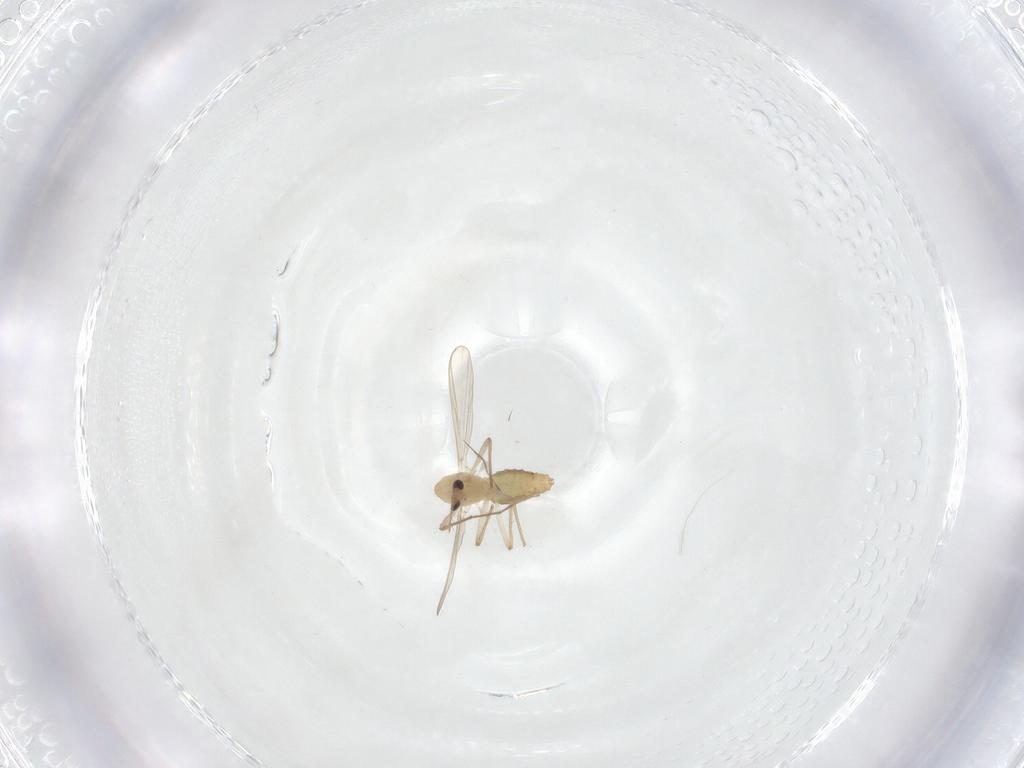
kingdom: Animalia
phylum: Arthropoda
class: Insecta
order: Diptera
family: Chironomidae
